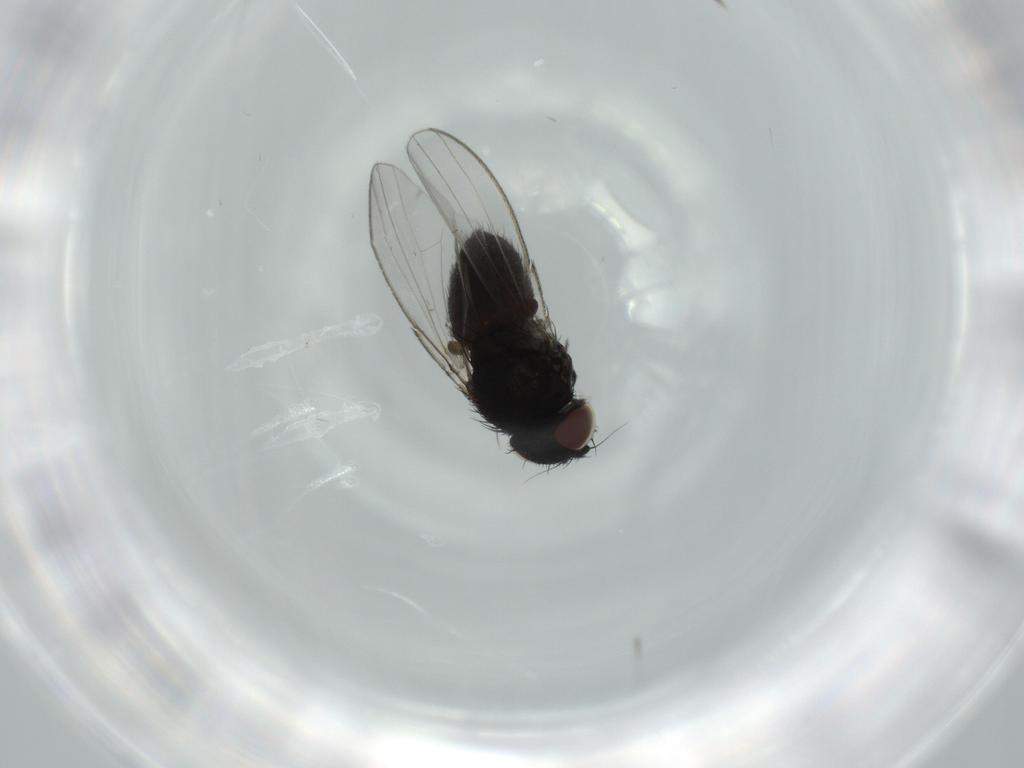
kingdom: Animalia
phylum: Arthropoda
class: Insecta
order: Diptera
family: Milichiidae
